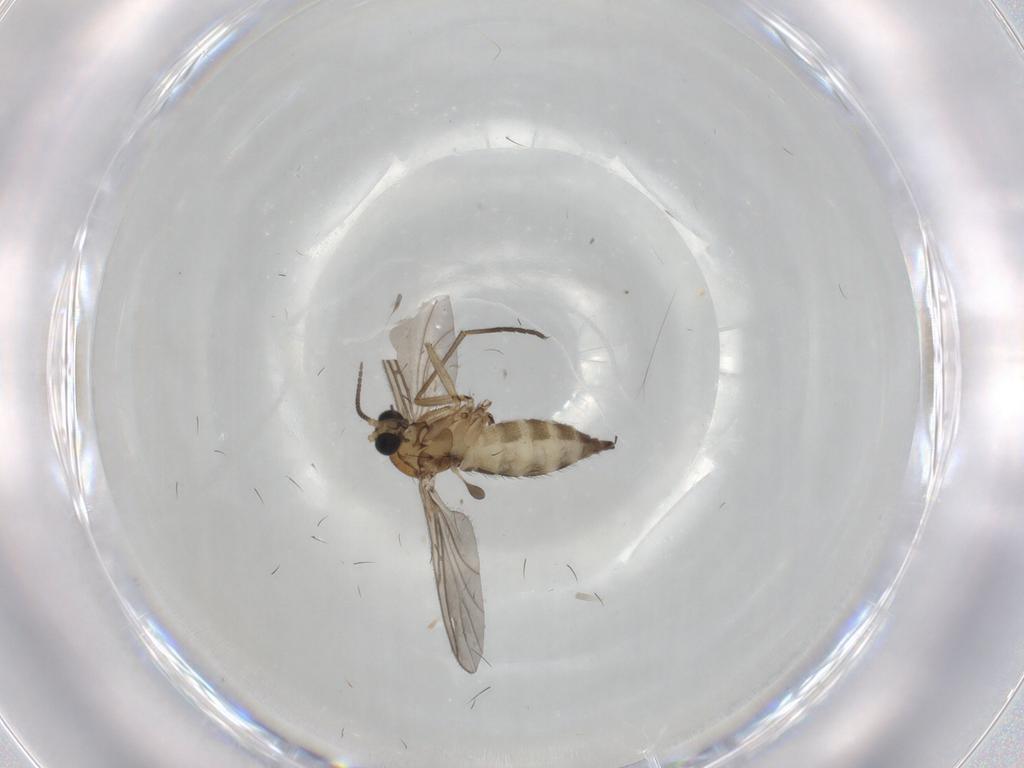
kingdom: Animalia
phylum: Arthropoda
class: Insecta
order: Diptera
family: Sciaridae
